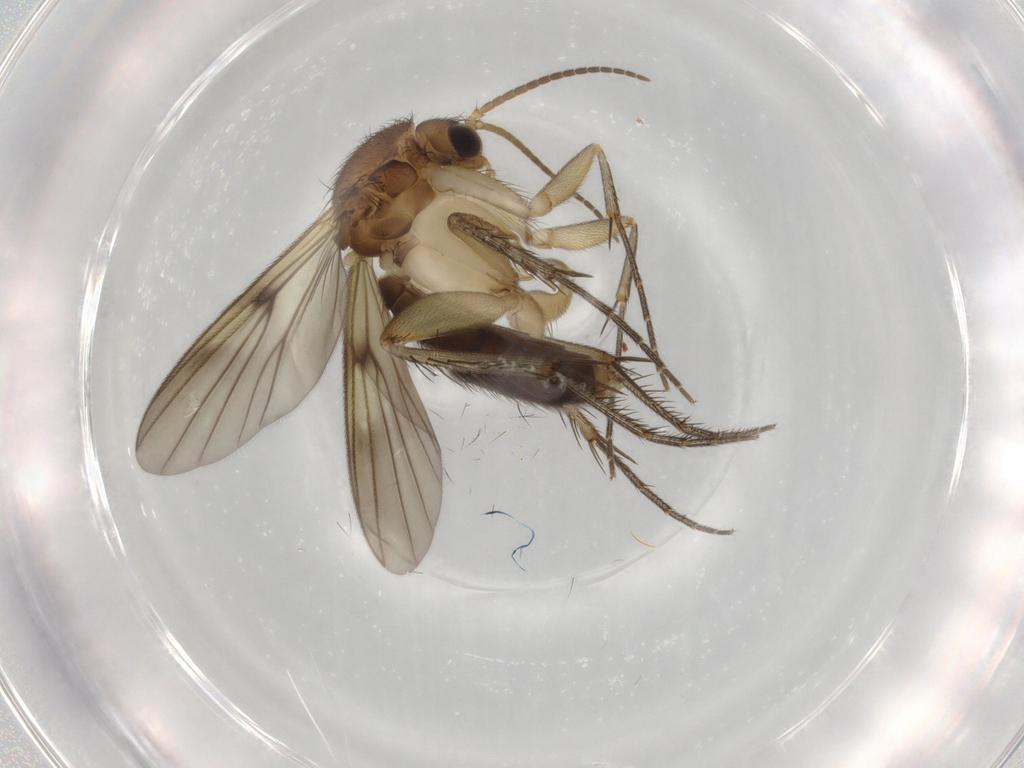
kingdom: Animalia
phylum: Arthropoda
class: Insecta
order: Diptera
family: Mycetophilidae
